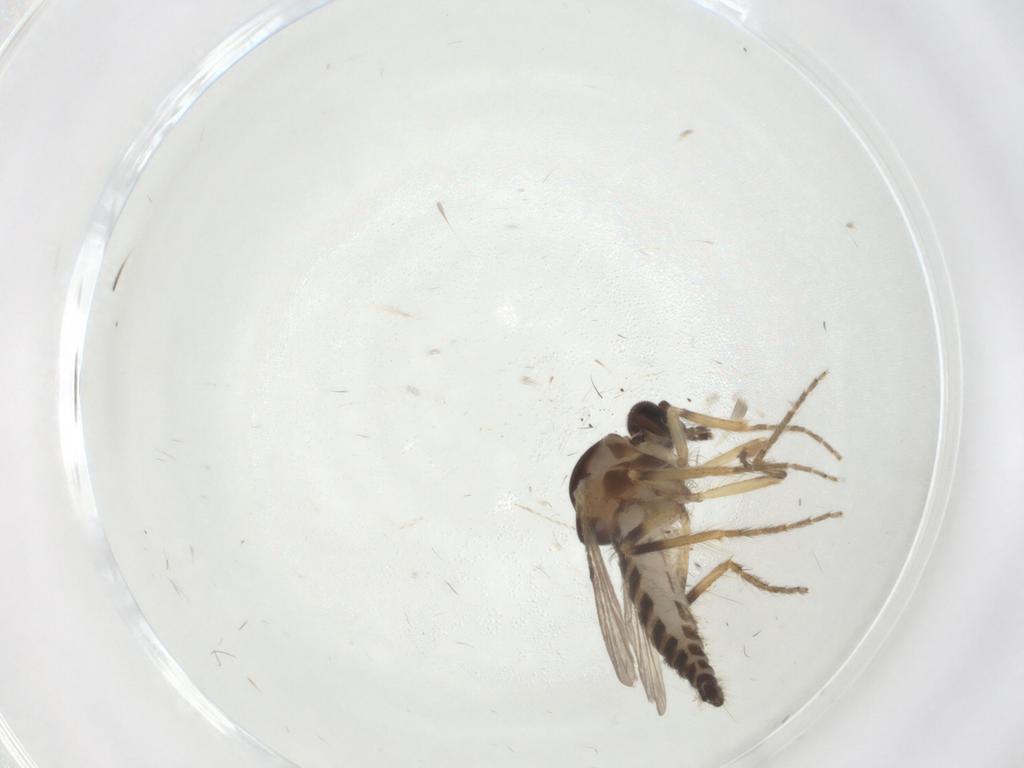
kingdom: Animalia
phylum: Arthropoda
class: Insecta
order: Diptera
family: Ceratopogonidae
